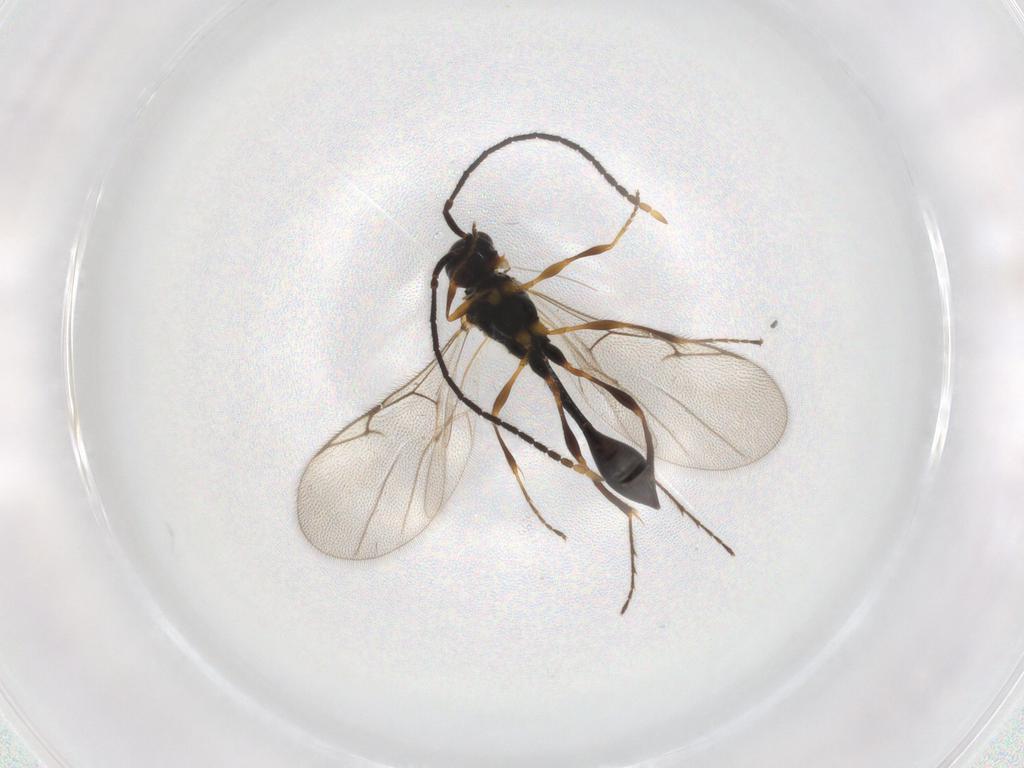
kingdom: Animalia
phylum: Arthropoda
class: Insecta
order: Hymenoptera
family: Diapriidae
